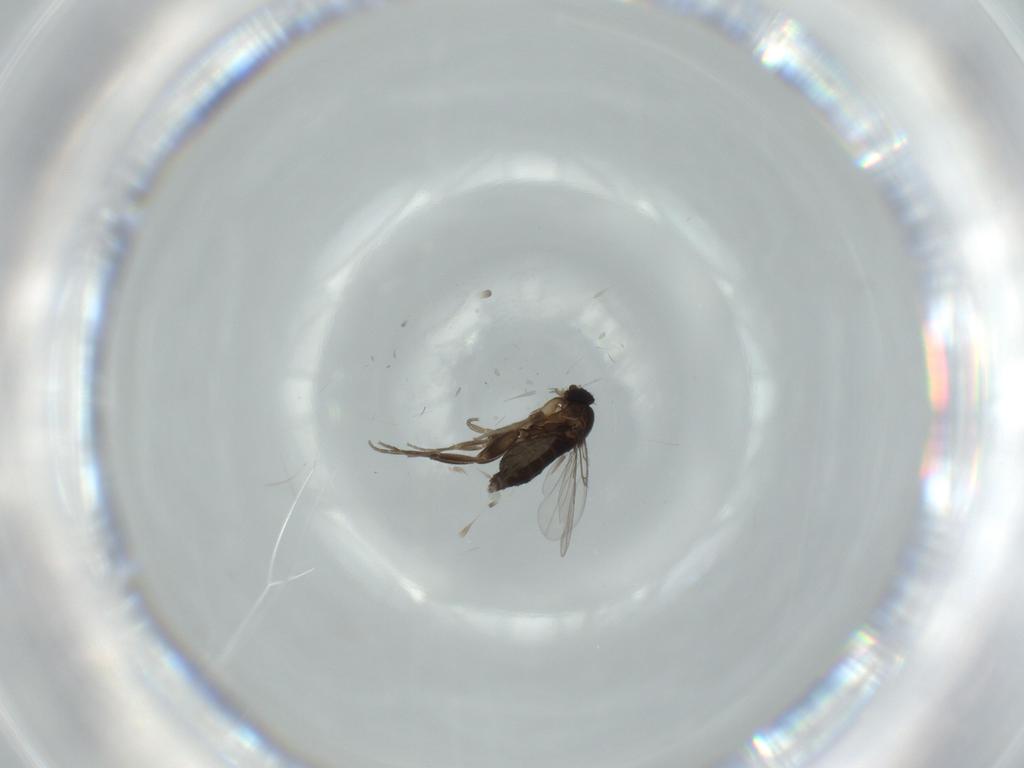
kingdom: Animalia
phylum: Arthropoda
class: Insecta
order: Diptera
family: Phoridae
